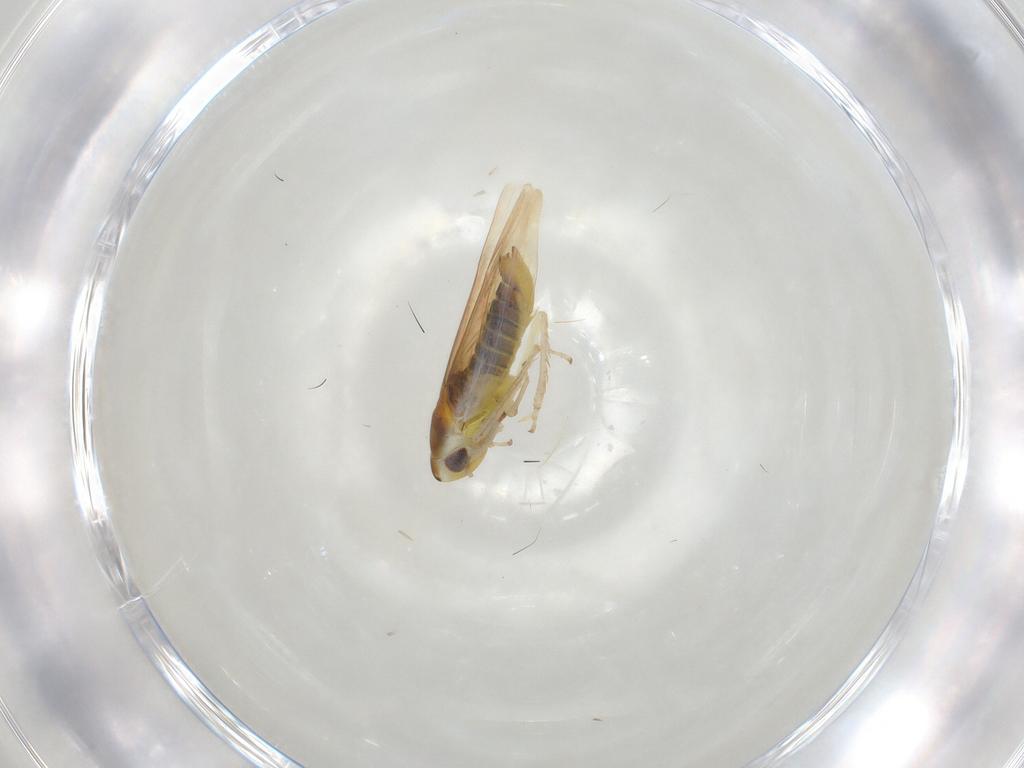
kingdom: Animalia
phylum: Arthropoda
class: Insecta
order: Hemiptera
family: Cicadellidae
